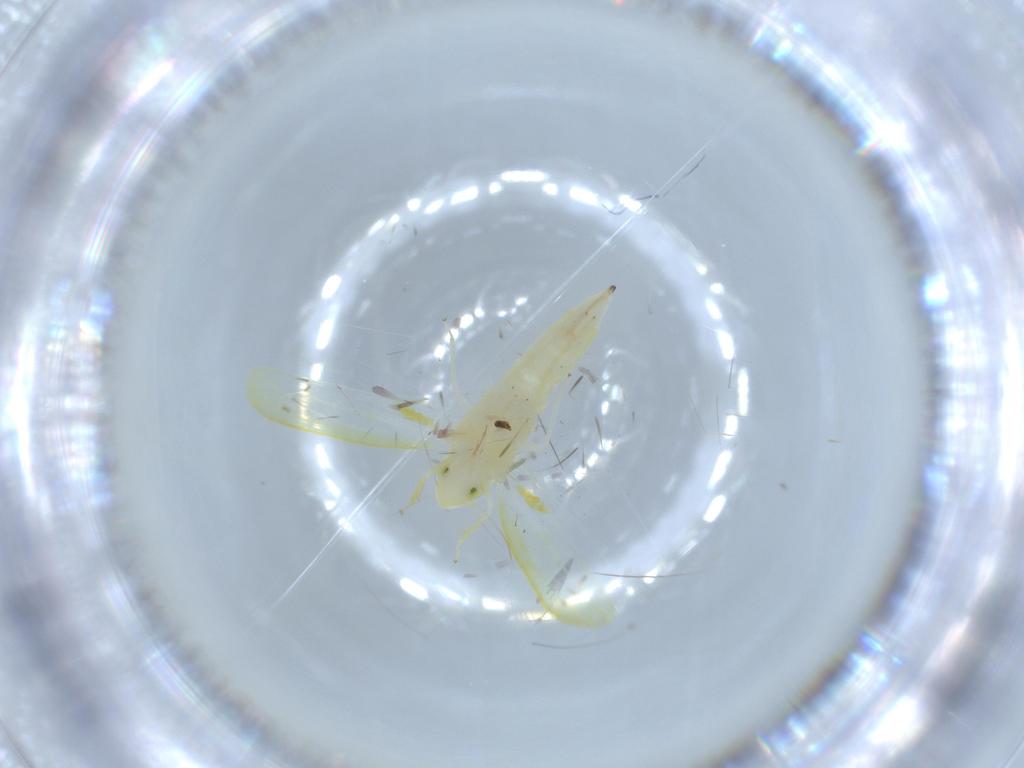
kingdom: Animalia
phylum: Arthropoda
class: Insecta
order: Hemiptera
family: Cicadellidae
